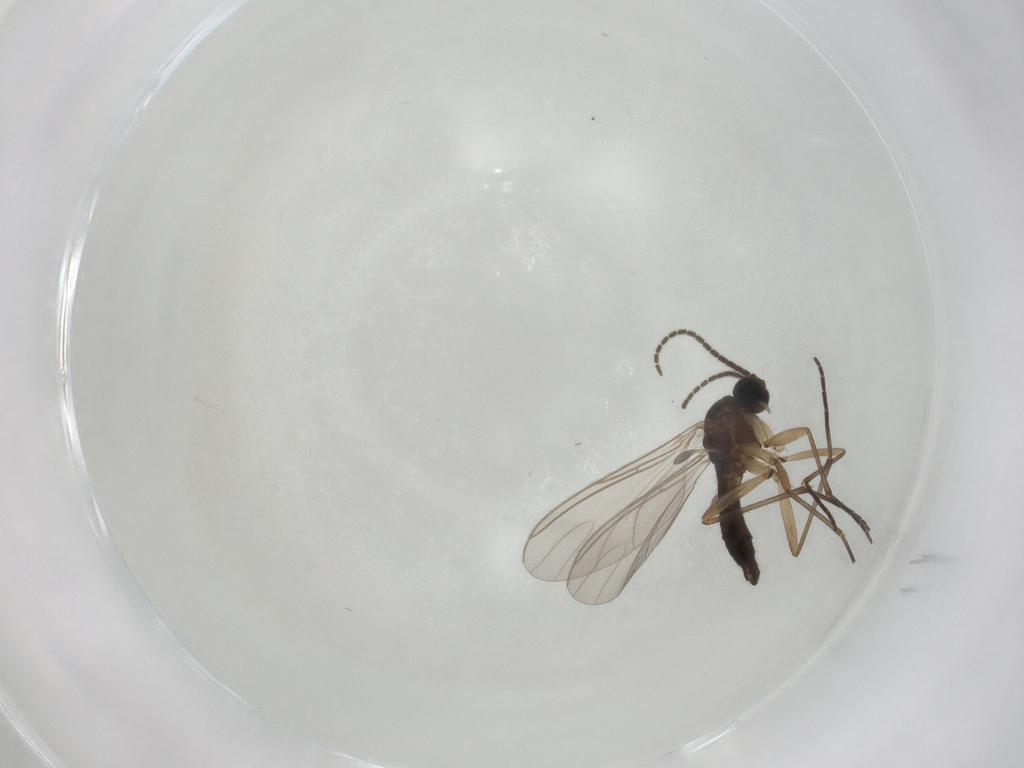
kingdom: Animalia
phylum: Arthropoda
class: Insecta
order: Diptera
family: Sciaridae
